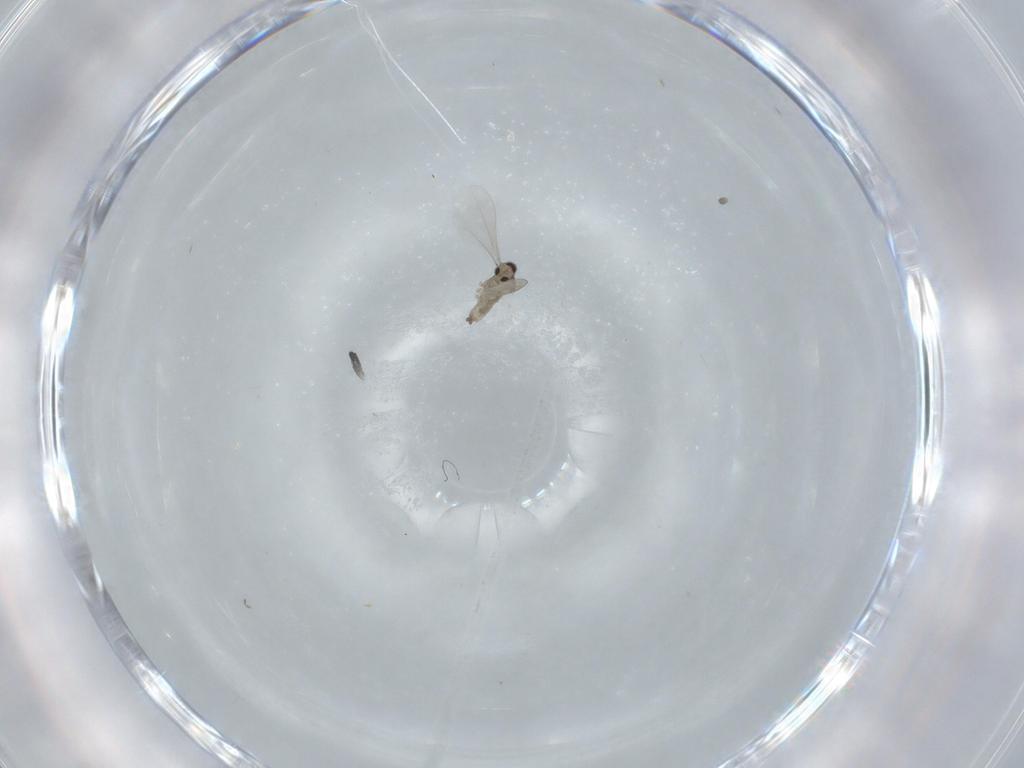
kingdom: Animalia
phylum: Arthropoda
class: Insecta
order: Diptera
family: Cecidomyiidae
